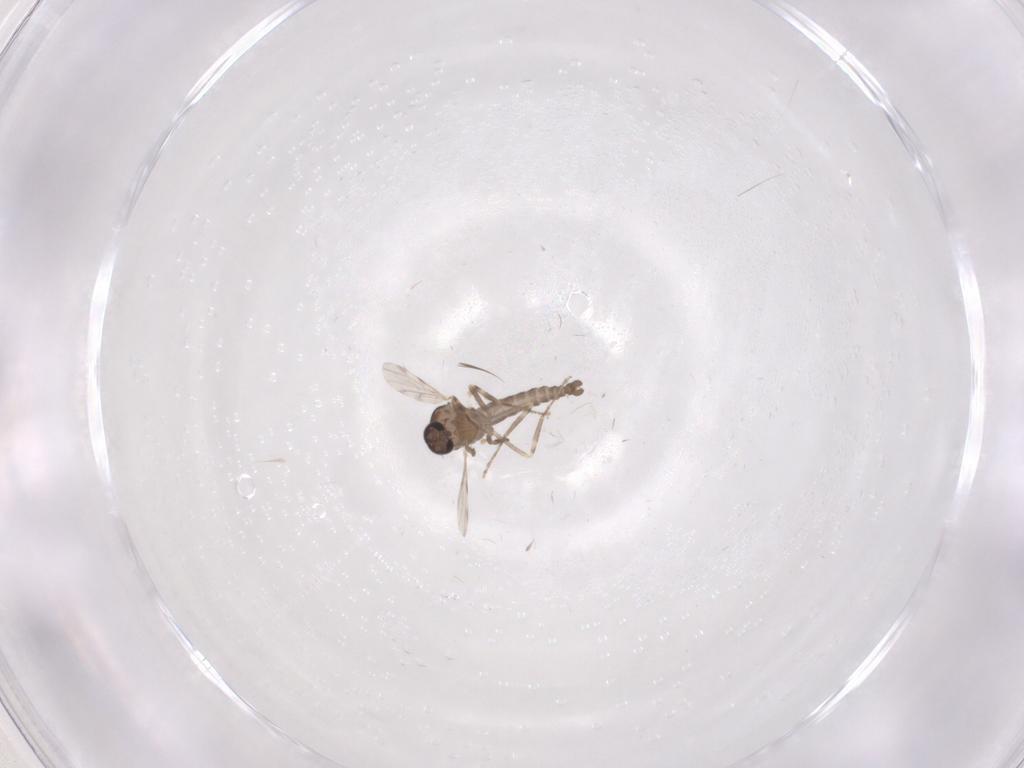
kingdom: Animalia
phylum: Arthropoda
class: Insecta
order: Diptera
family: Ceratopogonidae
